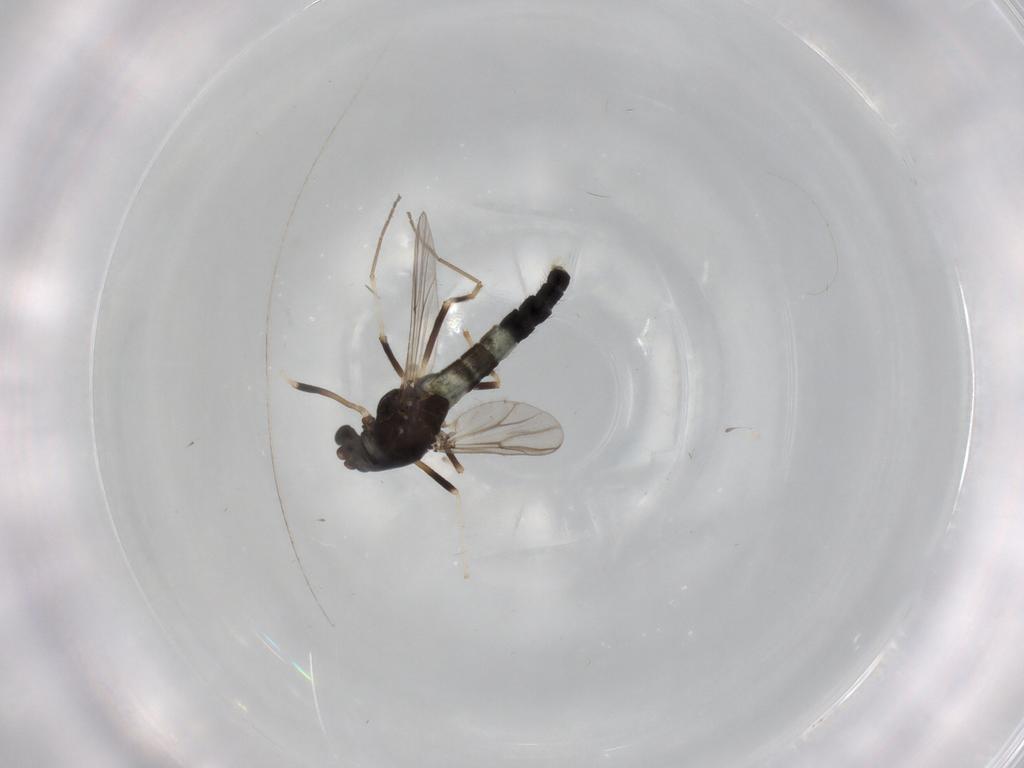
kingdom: Animalia
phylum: Arthropoda
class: Insecta
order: Diptera
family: Chironomidae
